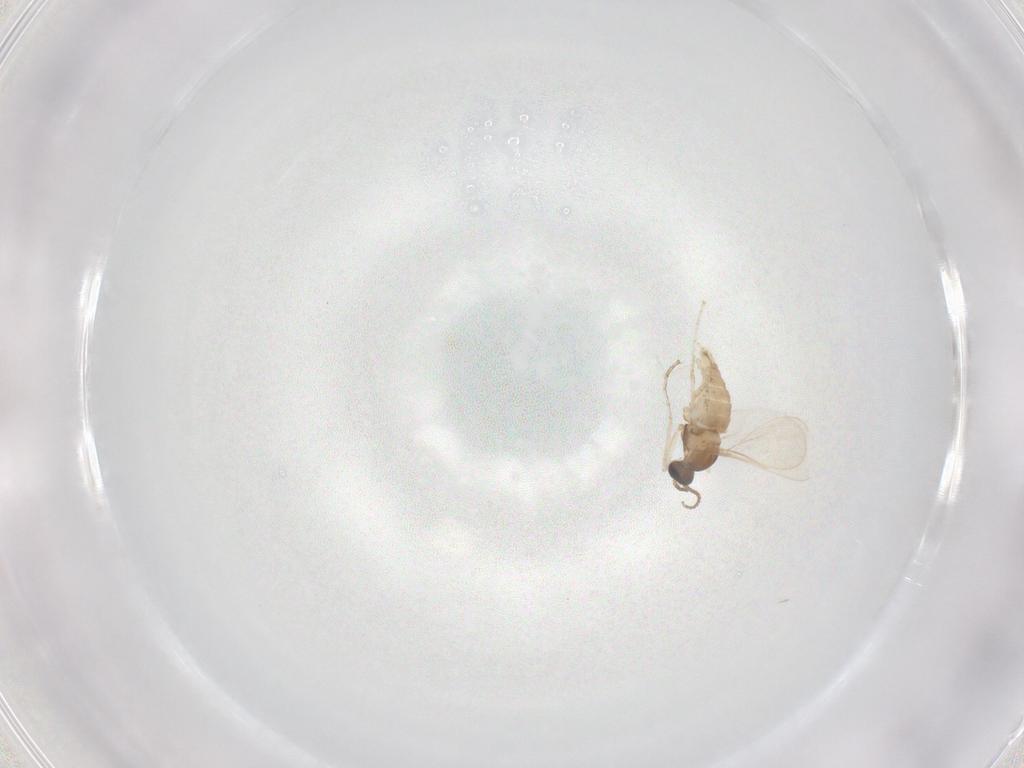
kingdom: Animalia
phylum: Arthropoda
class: Insecta
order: Diptera
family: Cecidomyiidae
